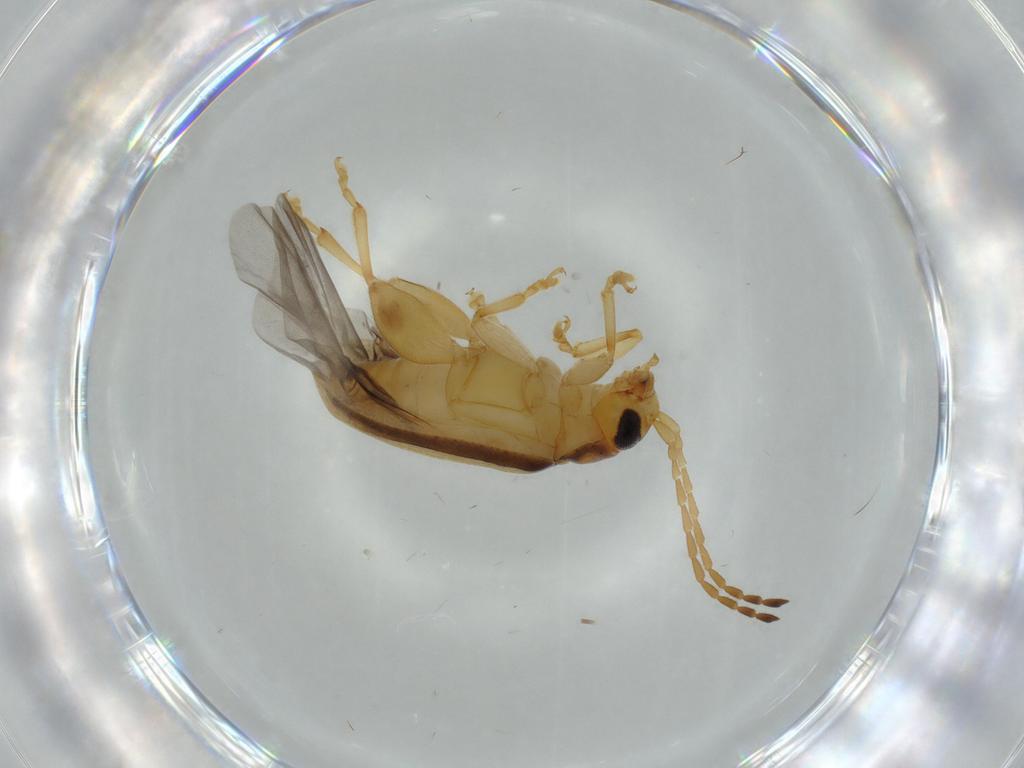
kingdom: Animalia
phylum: Arthropoda
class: Insecta
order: Coleoptera
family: Chrysomelidae
